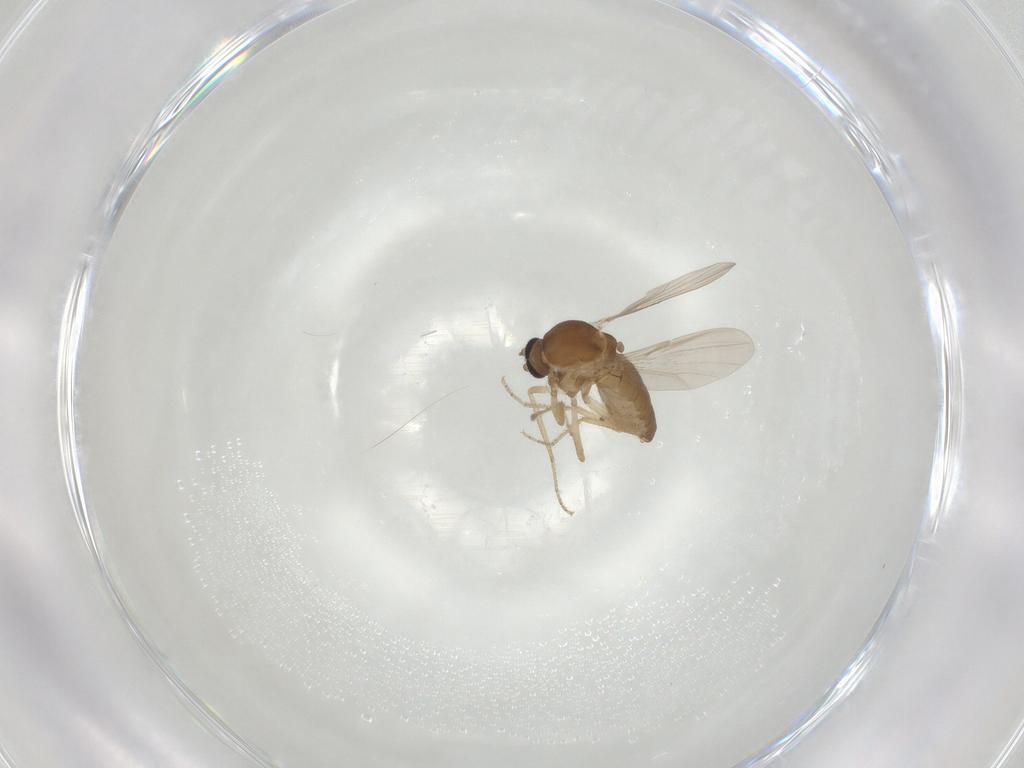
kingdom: Animalia
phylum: Arthropoda
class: Insecta
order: Diptera
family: Ceratopogonidae
